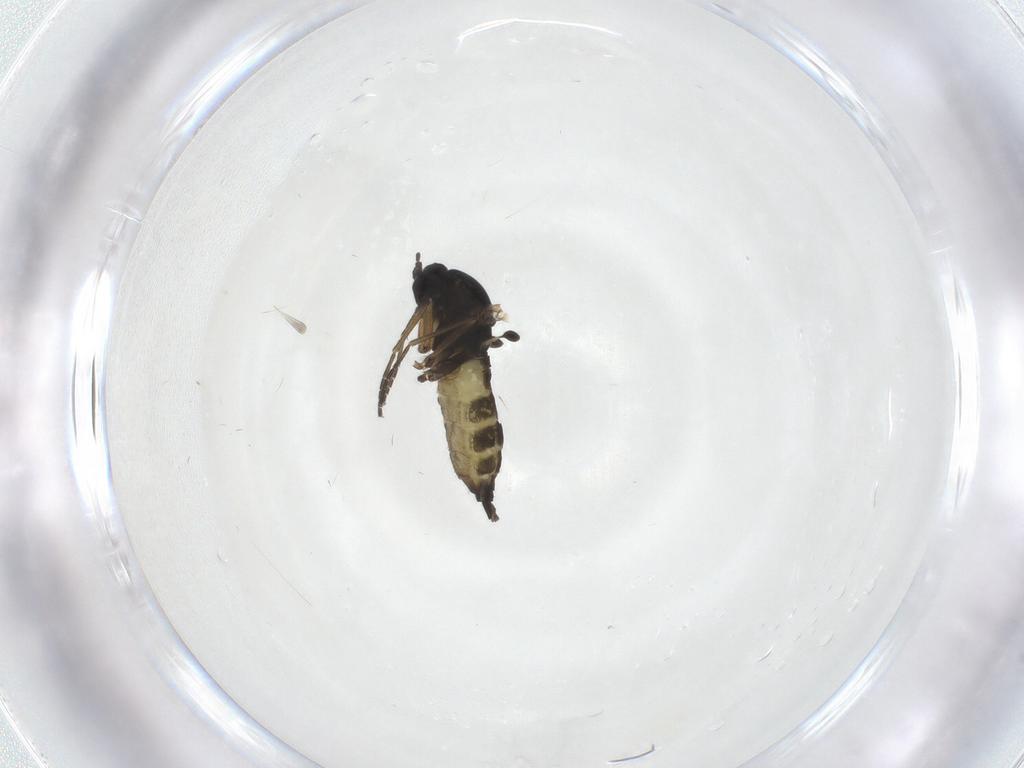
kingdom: Animalia
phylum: Arthropoda
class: Insecta
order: Diptera
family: Sciaridae
